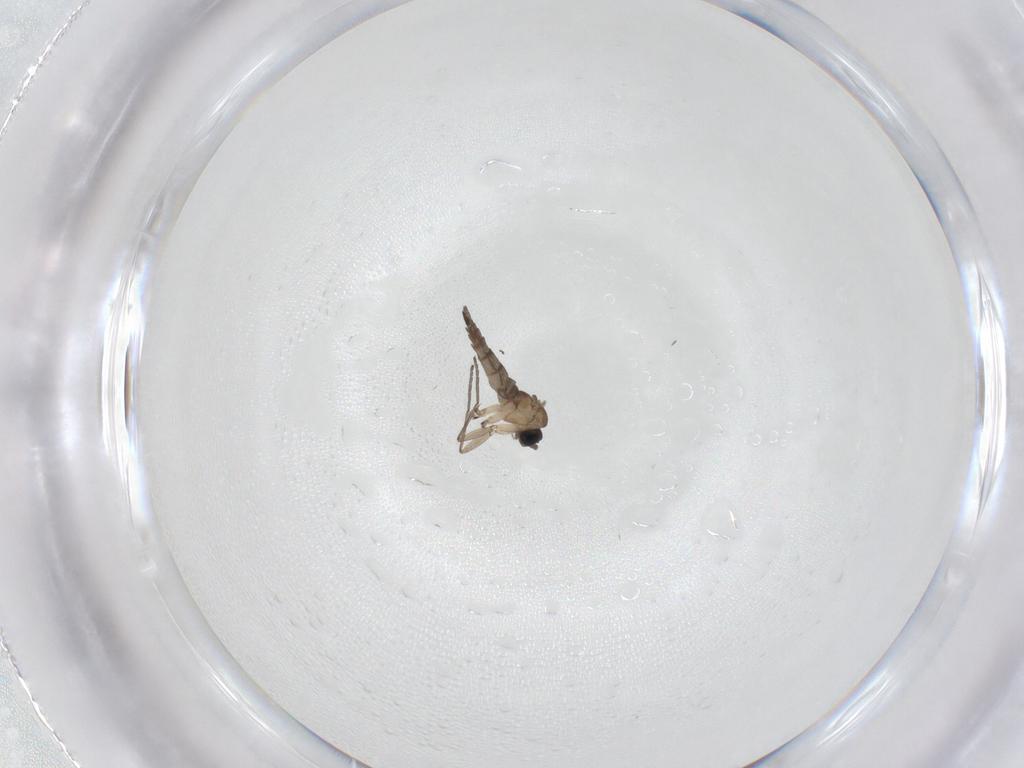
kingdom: Animalia
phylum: Arthropoda
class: Insecta
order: Diptera
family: Sciaridae
